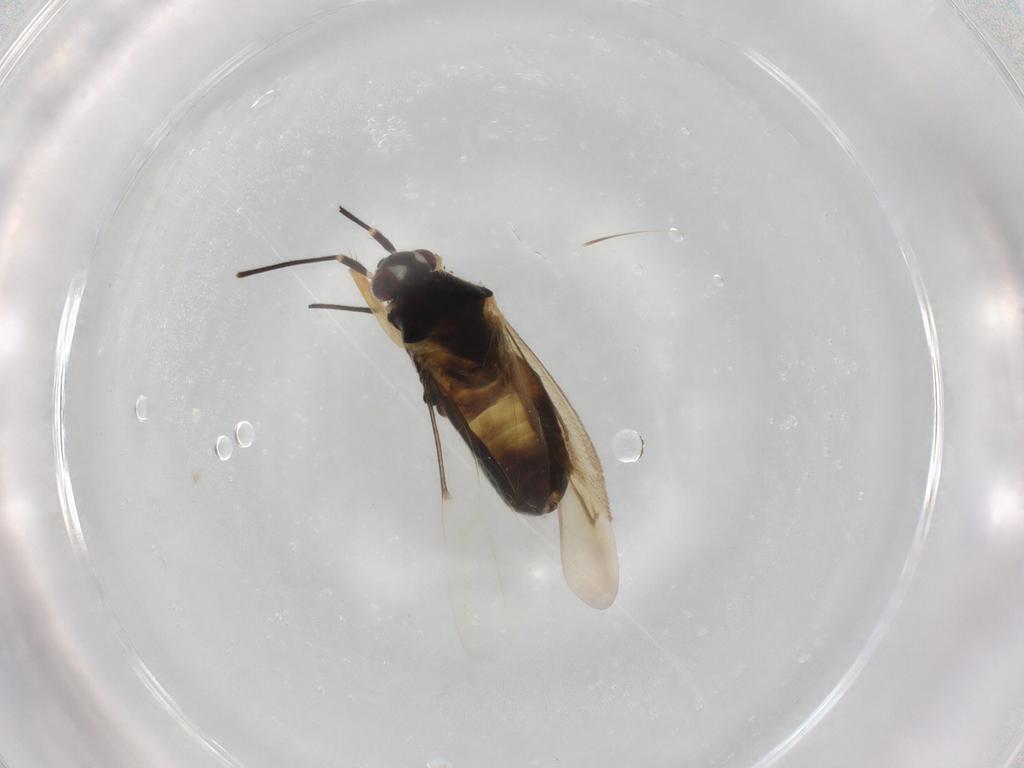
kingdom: Animalia
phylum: Arthropoda
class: Insecta
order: Hemiptera
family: Miridae
